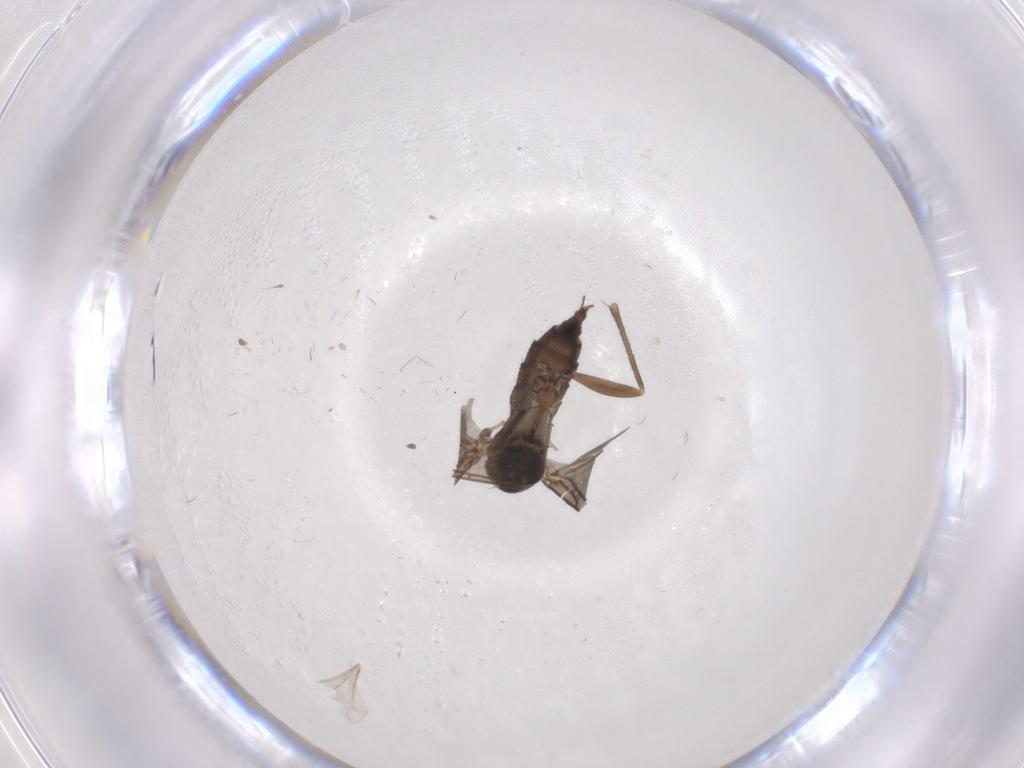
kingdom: Animalia
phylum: Arthropoda
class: Insecta
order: Diptera
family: Sciaridae
